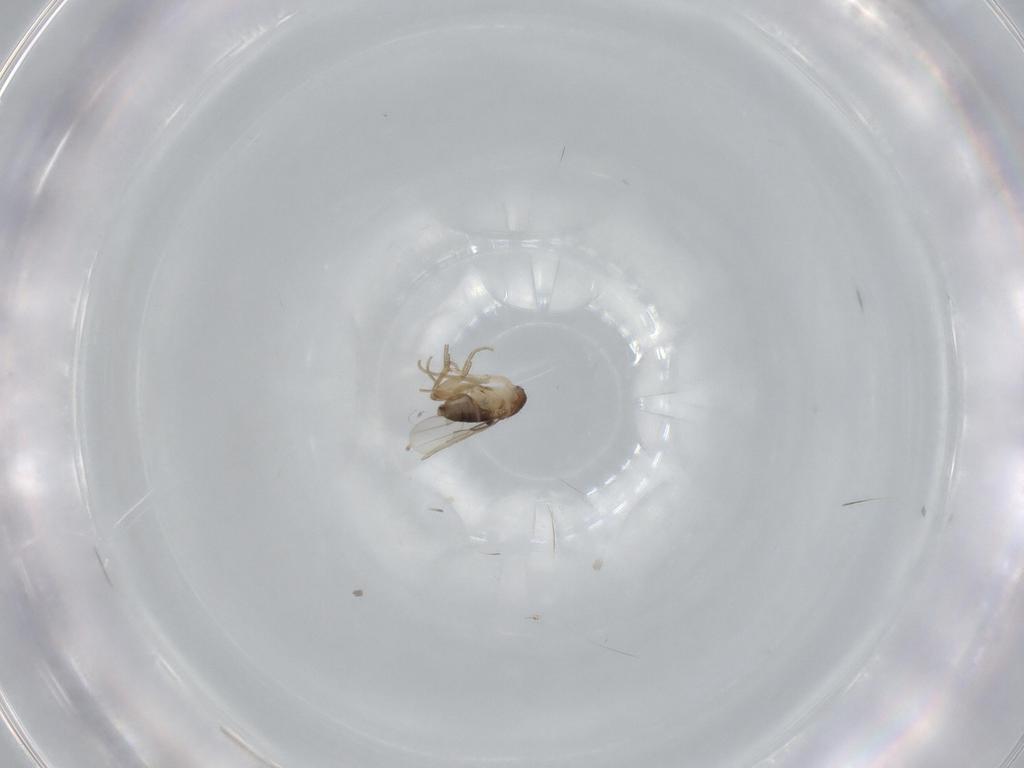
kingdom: Animalia
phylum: Arthropoda
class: Insecta
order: Diptera
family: Phoridae
